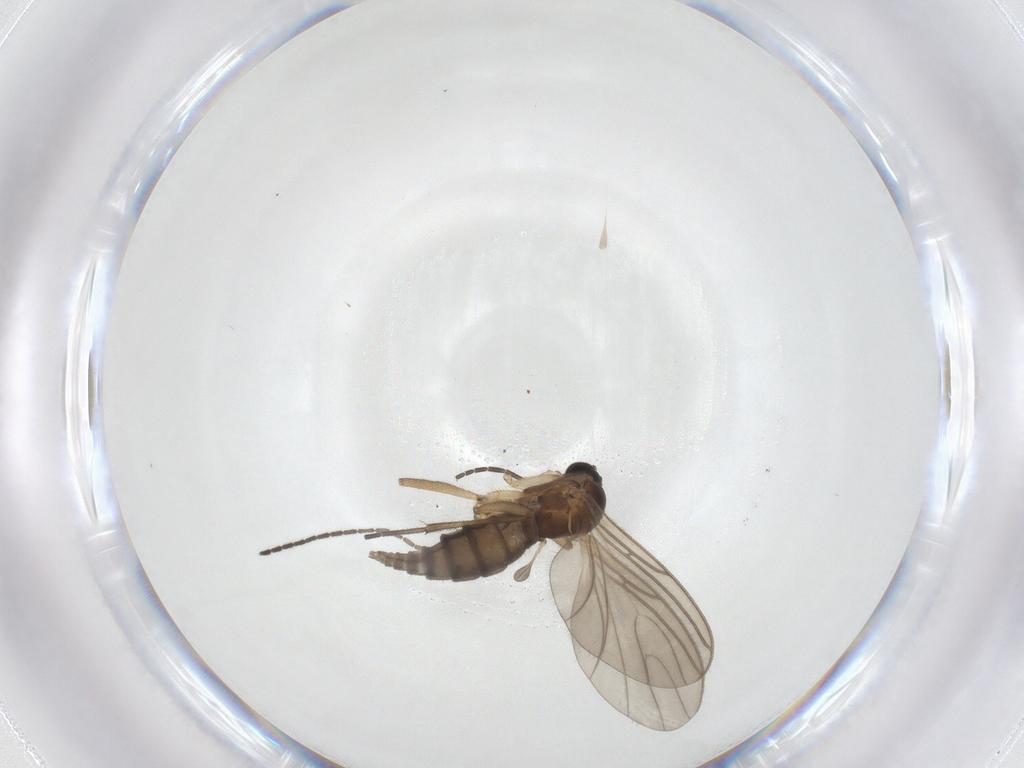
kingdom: Animalia
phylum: Arthropoda
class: Insecta
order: Diptera
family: Sciaridae
